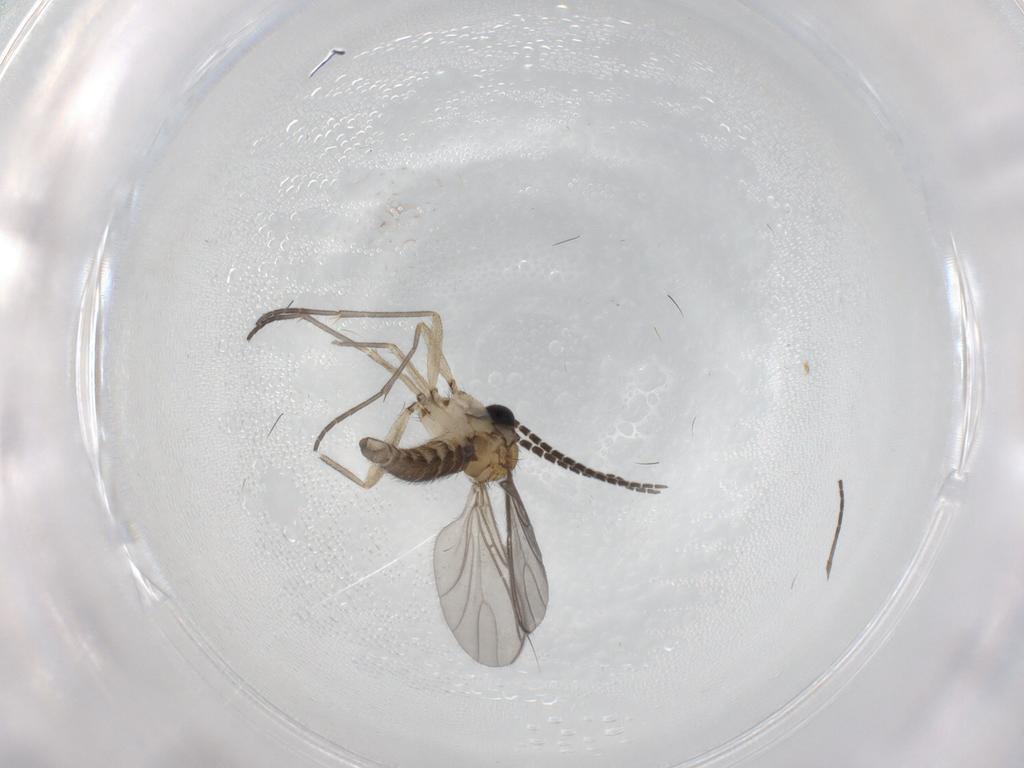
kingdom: Animalia
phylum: Arthropoda
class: Insecta
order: Diptera
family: Sciaridae
